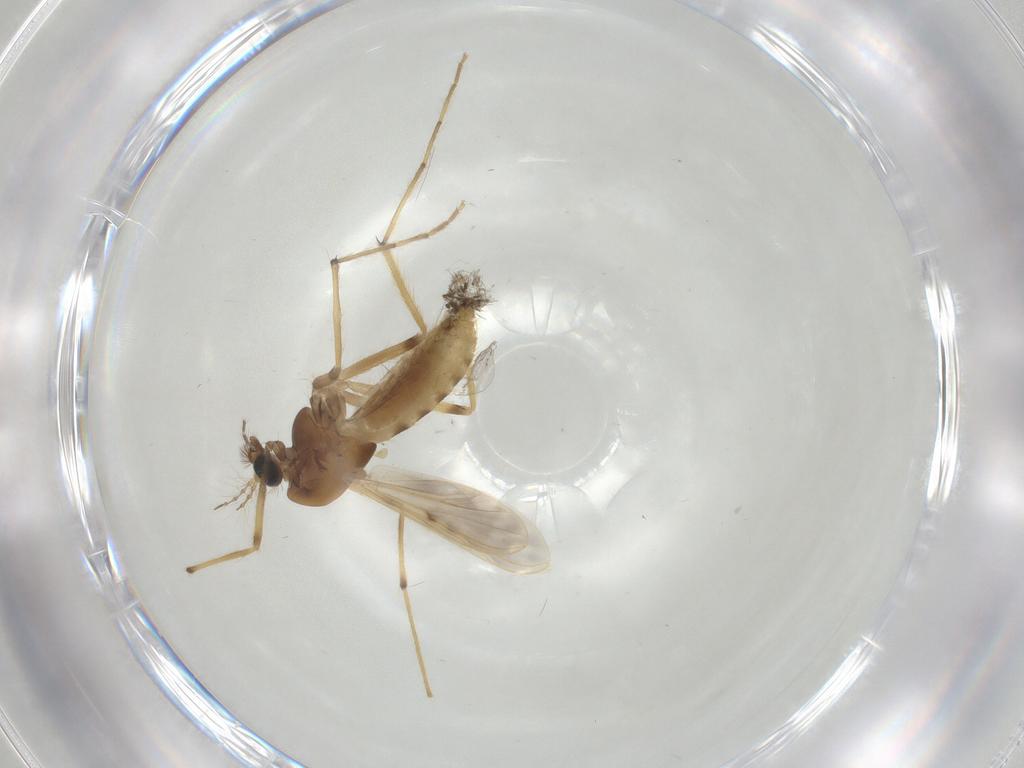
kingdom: Animalia
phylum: Arthropoda
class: Insecta
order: Diptera
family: Chironomidae
